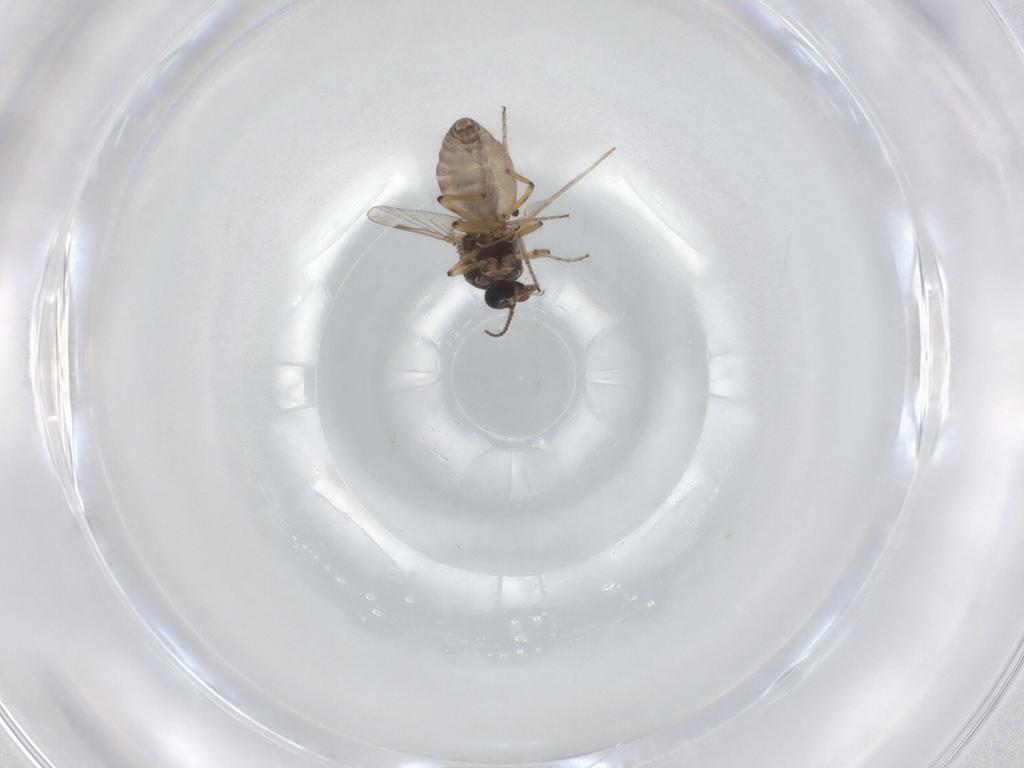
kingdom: Animalia
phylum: Arthropoda
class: Insecta
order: Diptera
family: Ceratopogonidae
